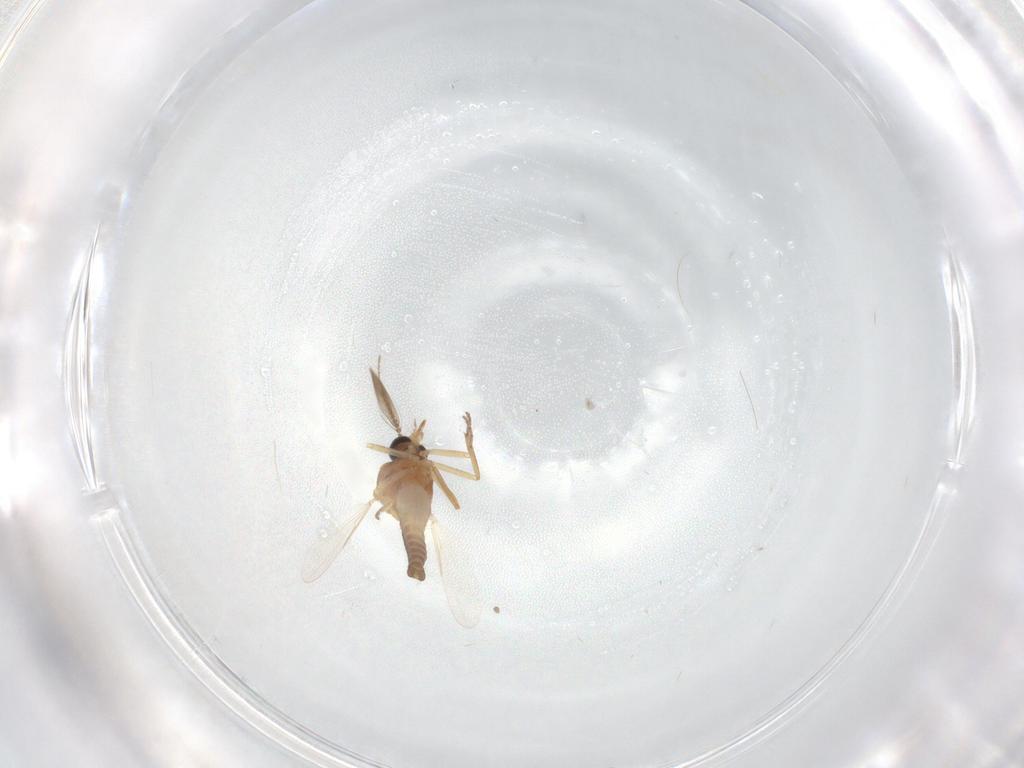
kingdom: Animalia
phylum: Arthropoda
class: Insecta
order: Diptera
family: Ceratopogonidae
